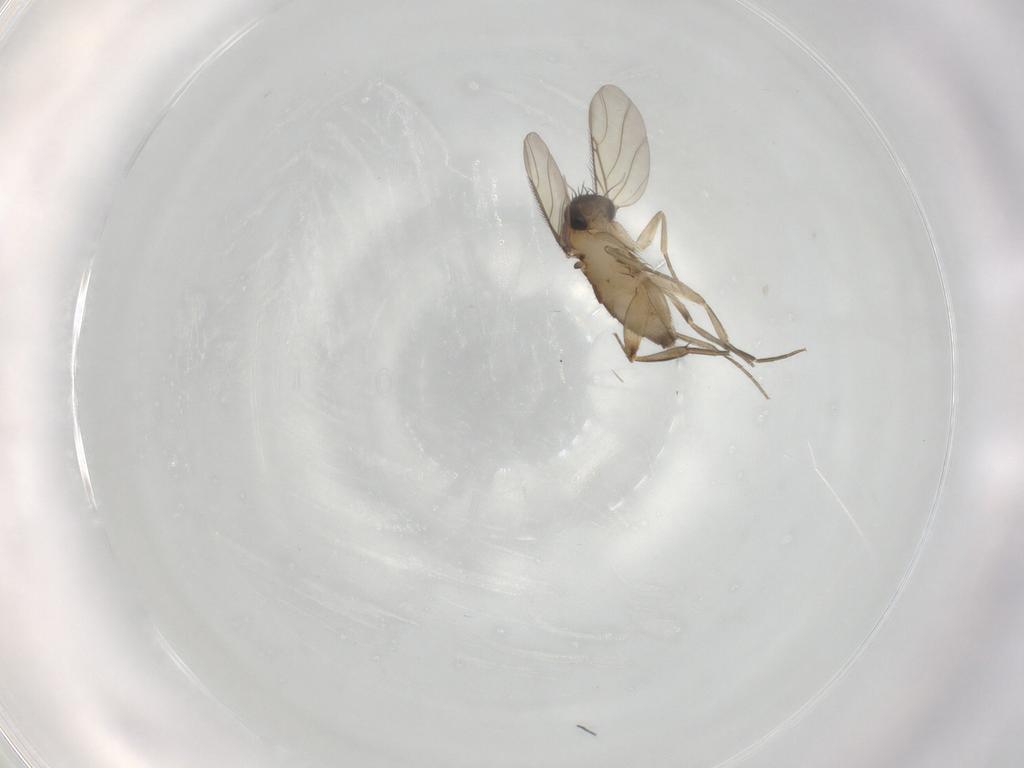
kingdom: Animalia
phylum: Arthropoda
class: Insecta
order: Diptera
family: Phoridae
